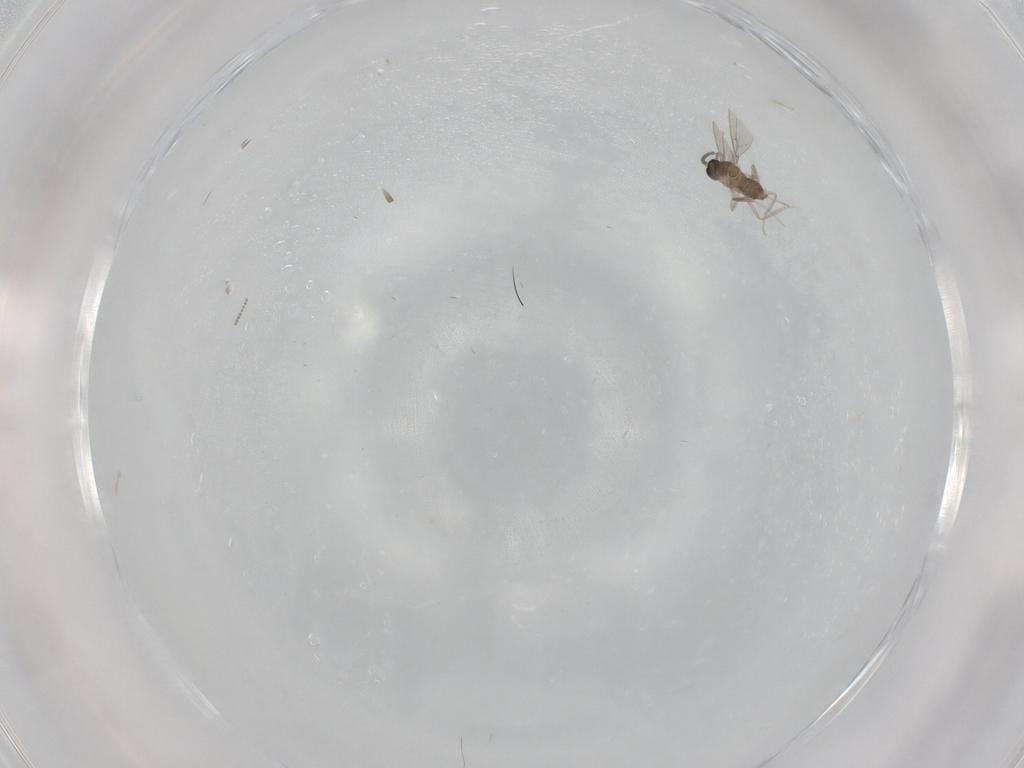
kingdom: Animalia
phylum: Arthropoda
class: Insecta
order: Diptera
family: Cecidomyiidae
